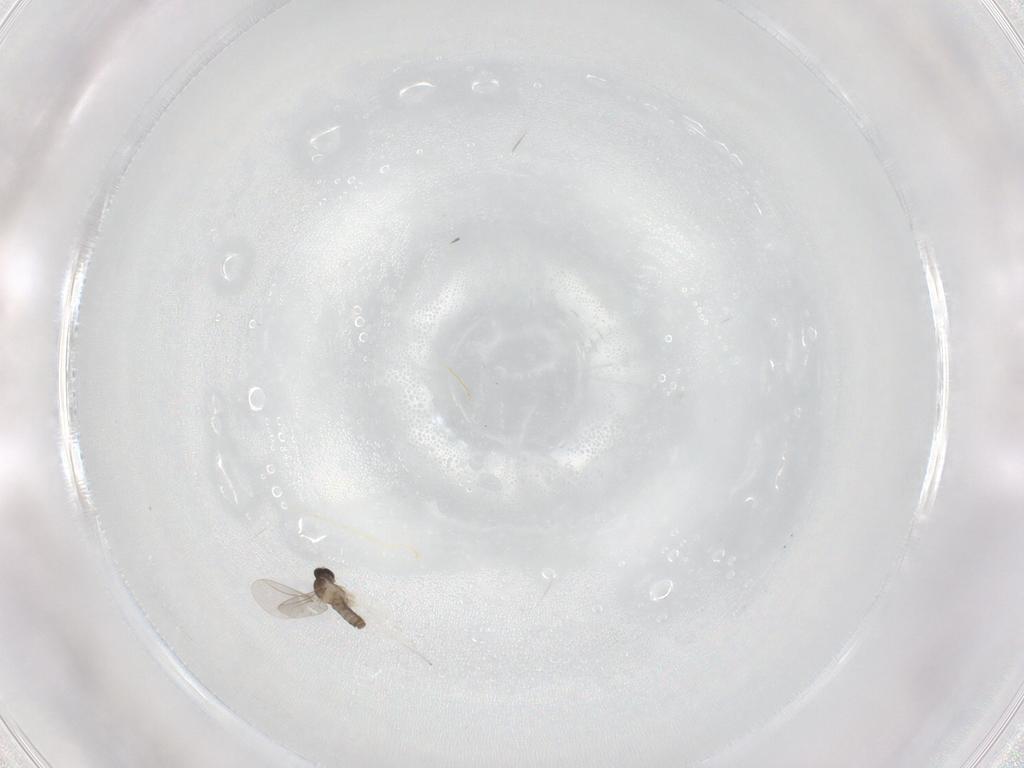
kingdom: Animalia
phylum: Arthropoda
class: Insecta
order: Diptera
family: Cecidomyiidae
